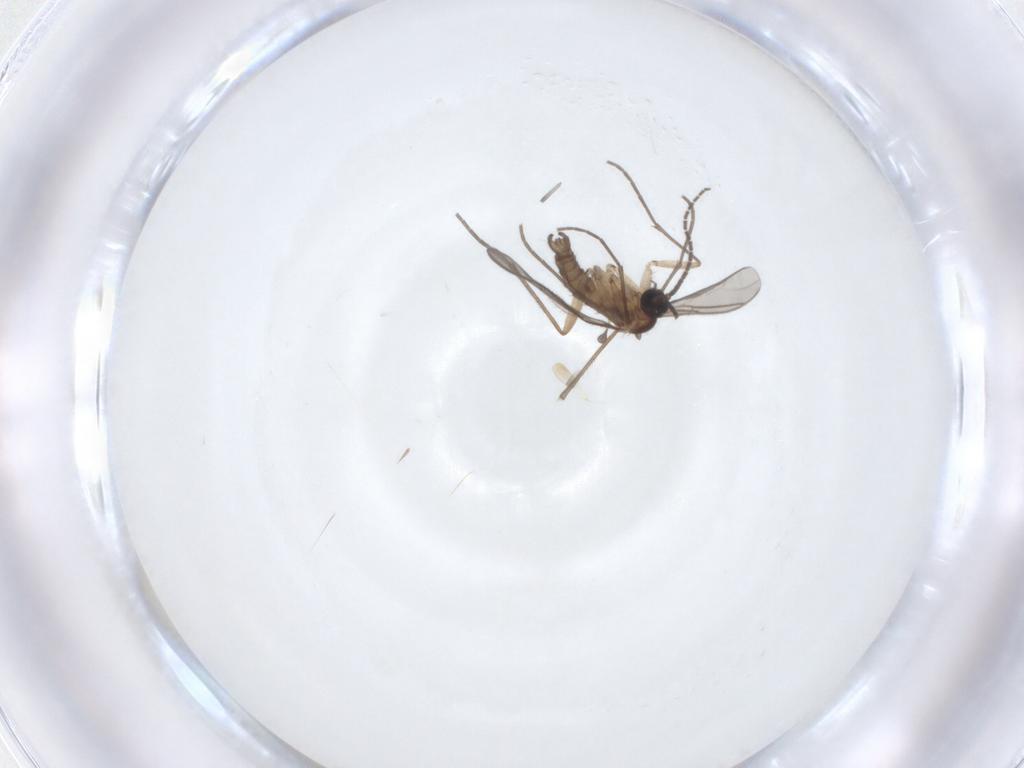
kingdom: Animalia
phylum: Arthropoda
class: Insecta
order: Diptera
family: Sciaridae
